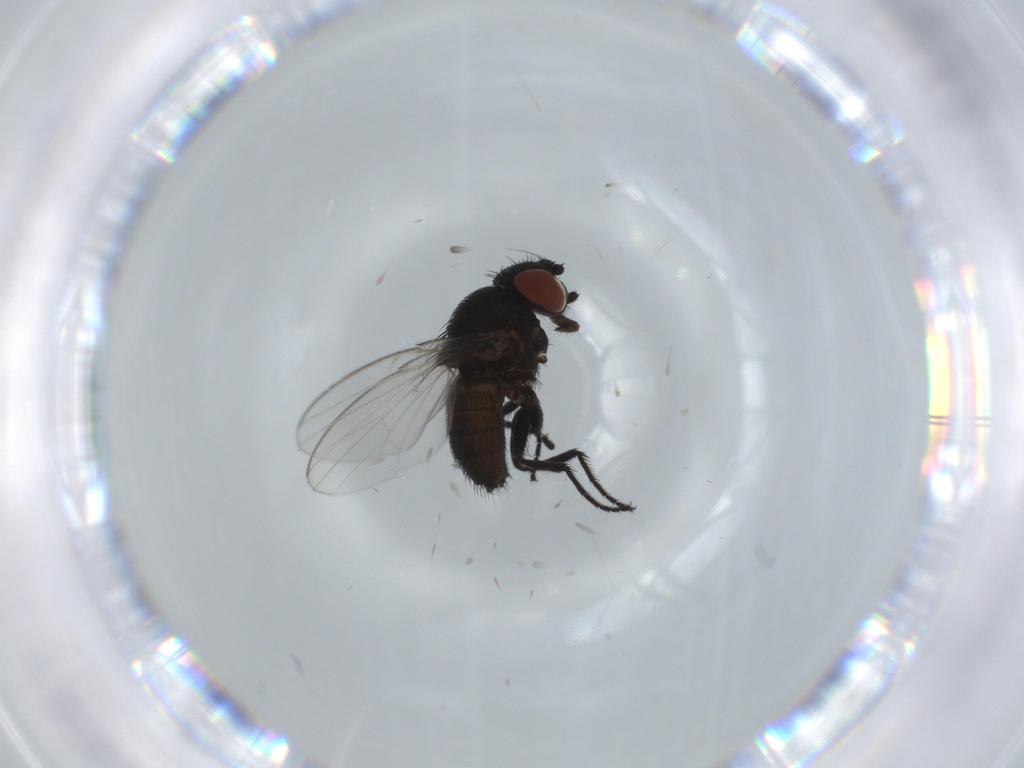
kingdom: Animalia
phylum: Arthropoda
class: Insecta
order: Diptera
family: Milichiidae
